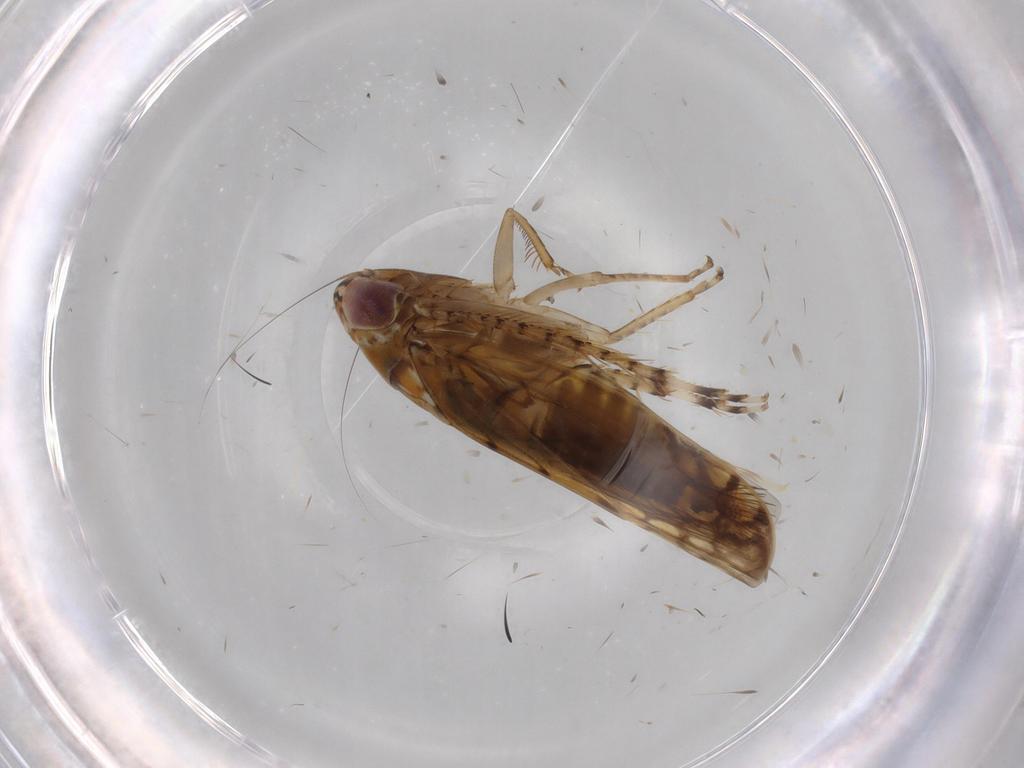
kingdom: Animalia
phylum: Arthropoda
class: Insecta
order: Hemiptera
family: Cicadellidae
